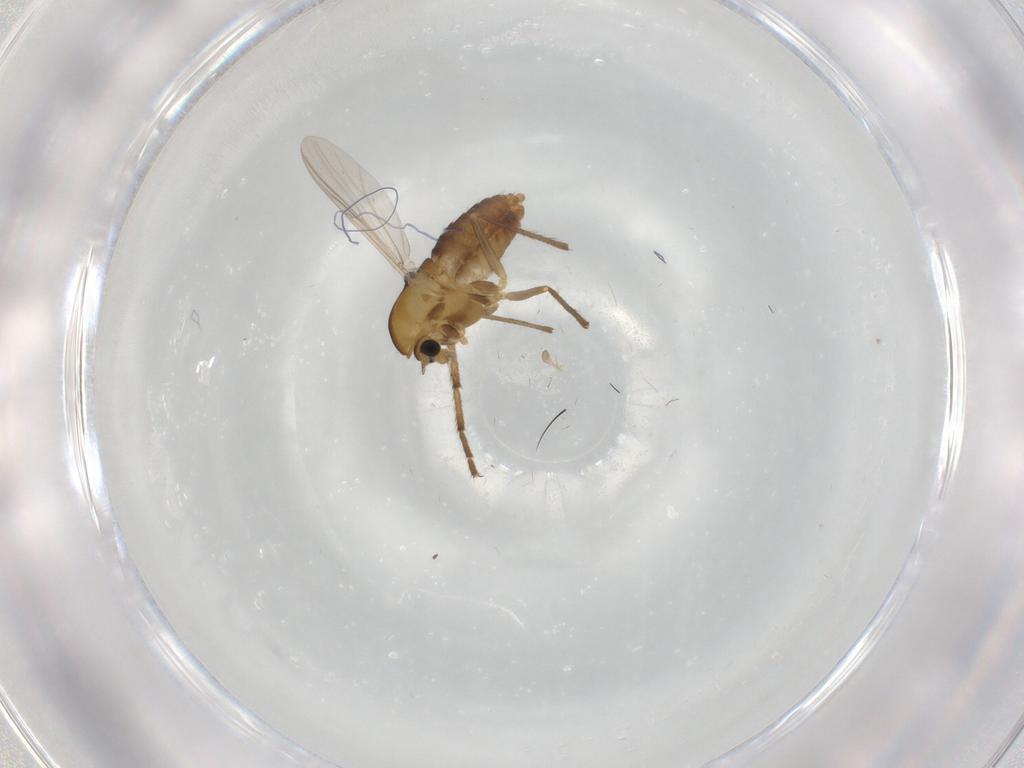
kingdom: Animalia
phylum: Arthropoda
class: Insecta
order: Diptera
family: Chironomidae
